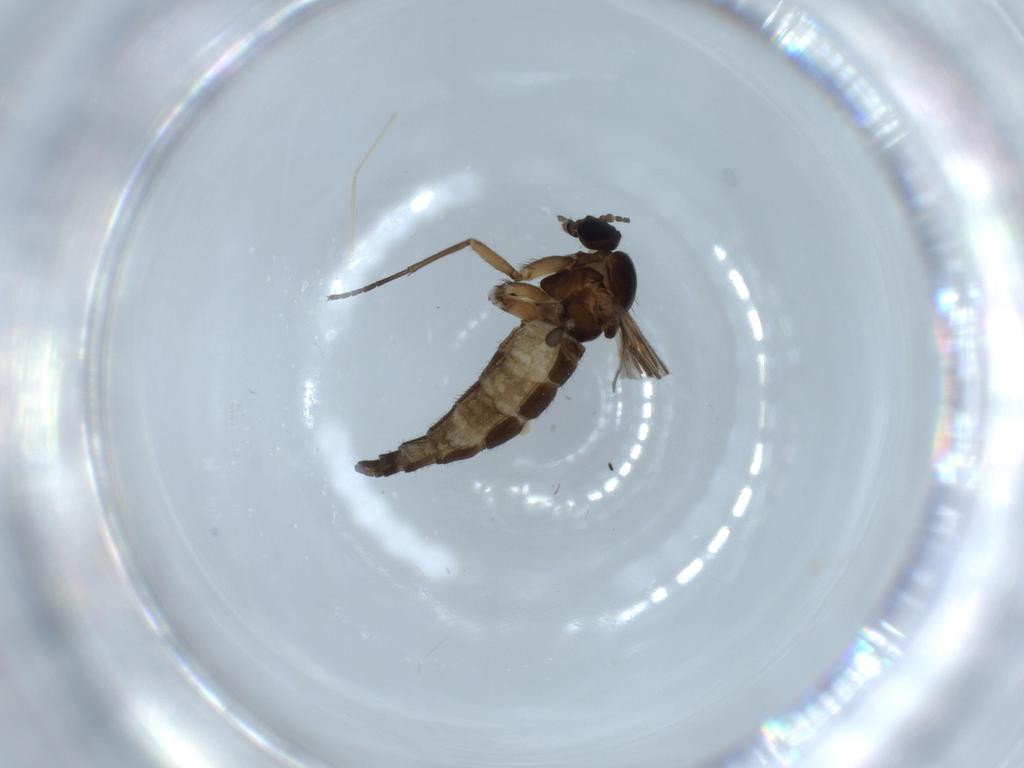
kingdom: Animalia
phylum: Arthropoda
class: Insecta
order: Diptera
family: Sciaridae
